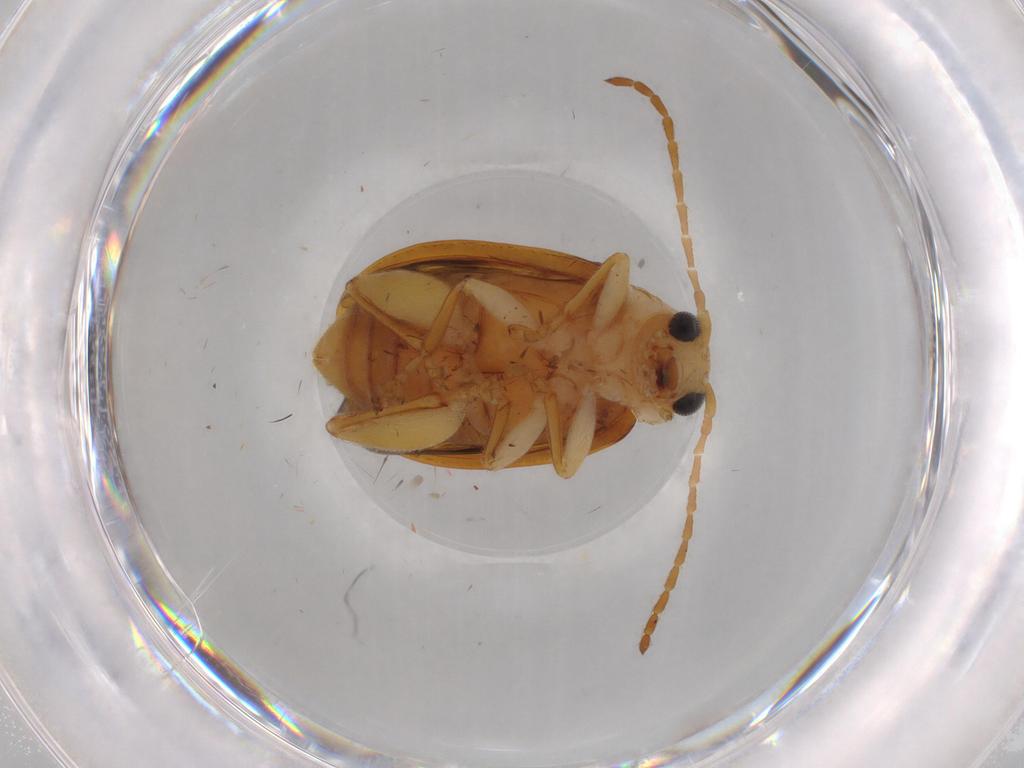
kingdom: Animalia
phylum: Arthropoda
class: Insecta
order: Coleoptera
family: Chrysomelidae
